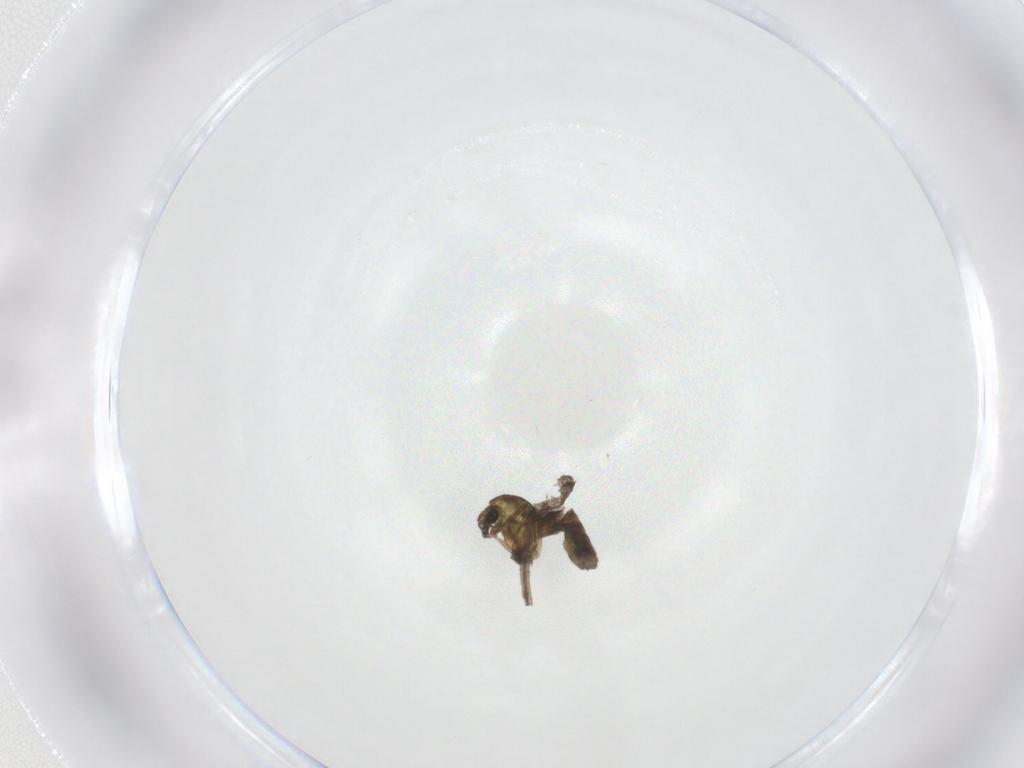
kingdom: Animalia
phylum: Arthropoda
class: Insecta
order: Diptera
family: Chironomidae
